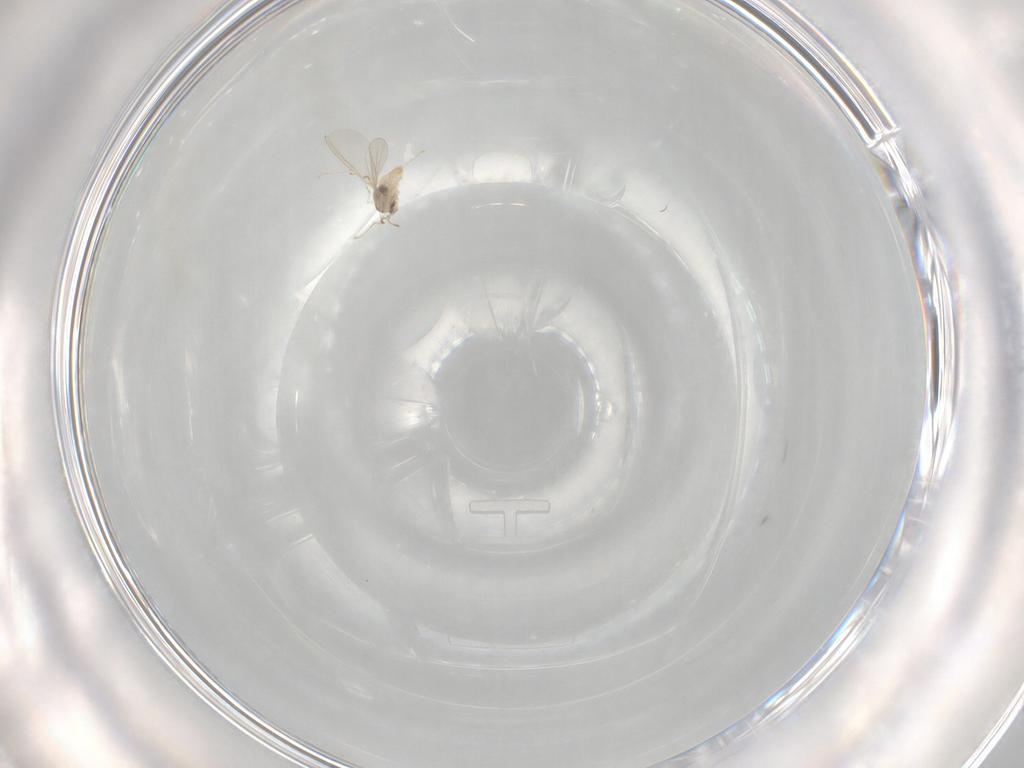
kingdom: Animalia
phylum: Arthropoda
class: Insecta
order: Diptera
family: Cecidomyiidae
